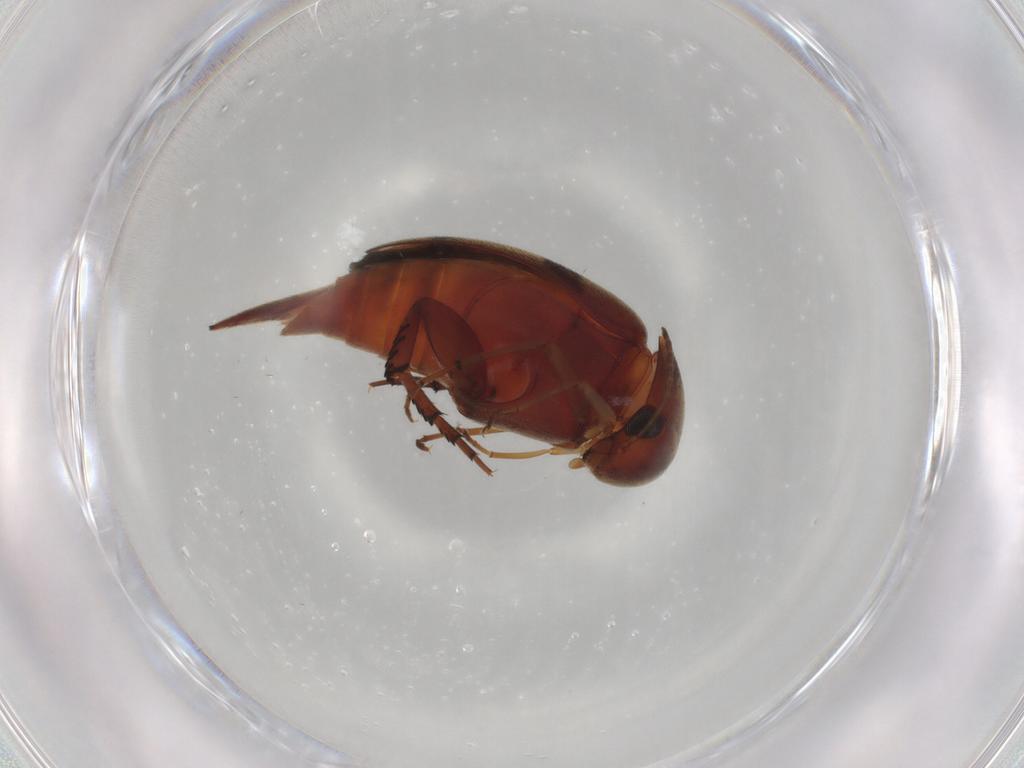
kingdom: Animalia
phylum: Arthropoda
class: Insecta
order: Coleoptera
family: Mordellidae
